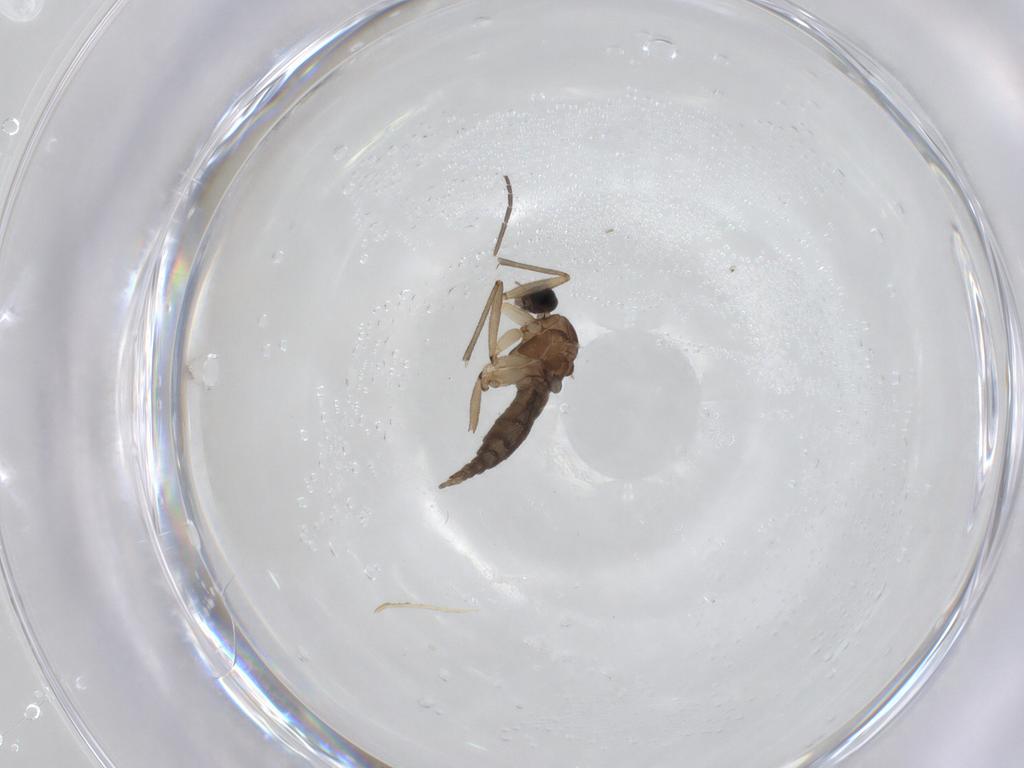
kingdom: Animalia
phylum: Arthropoda
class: Insecta
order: Diptera
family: Sciaridae
